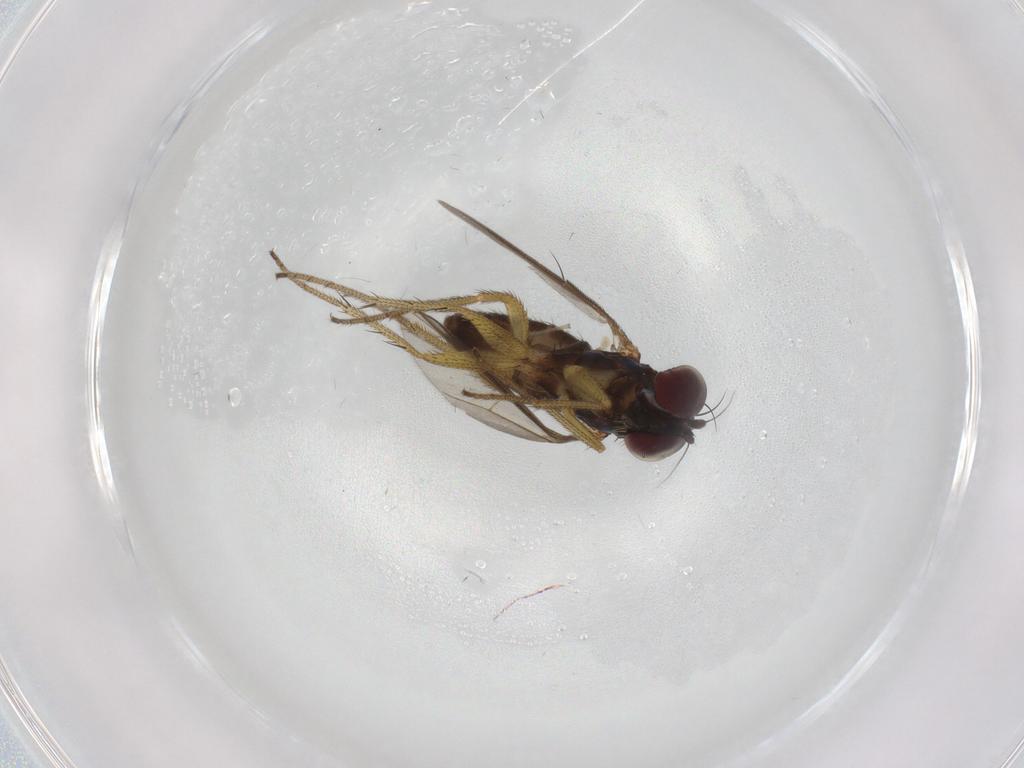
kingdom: Animalia
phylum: Arthropoda
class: Insecta
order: Diptera
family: Dolichopodidae
